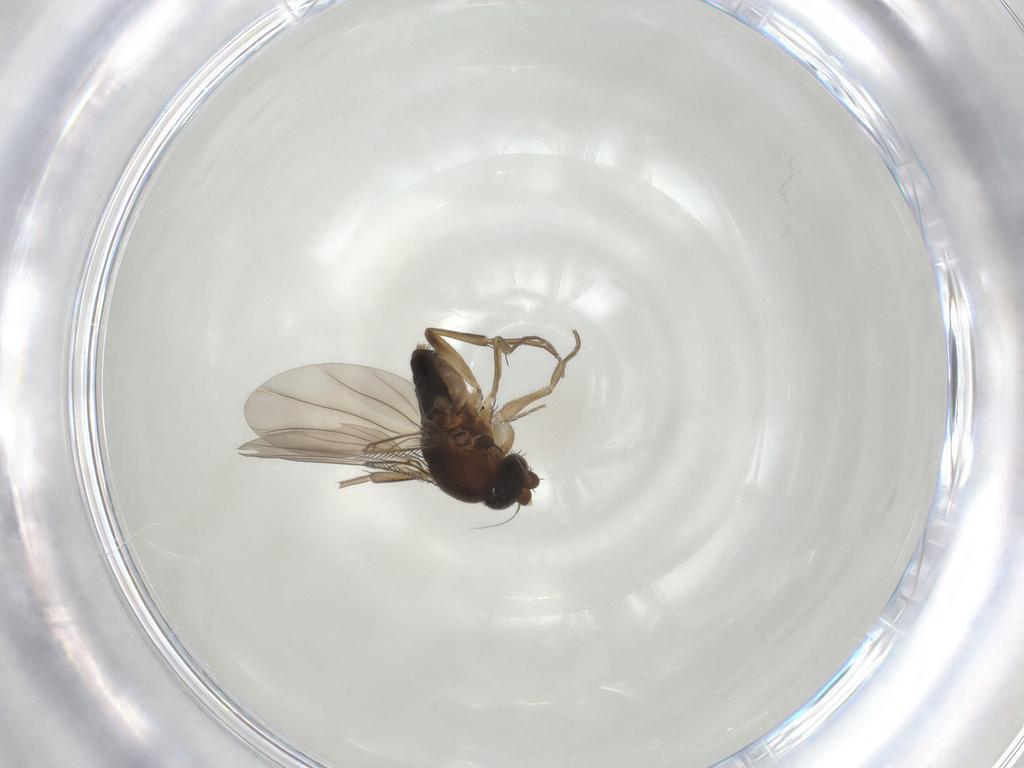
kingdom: Animalia
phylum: Arthropoda
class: Insecta
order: Diptera
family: Phoridae
